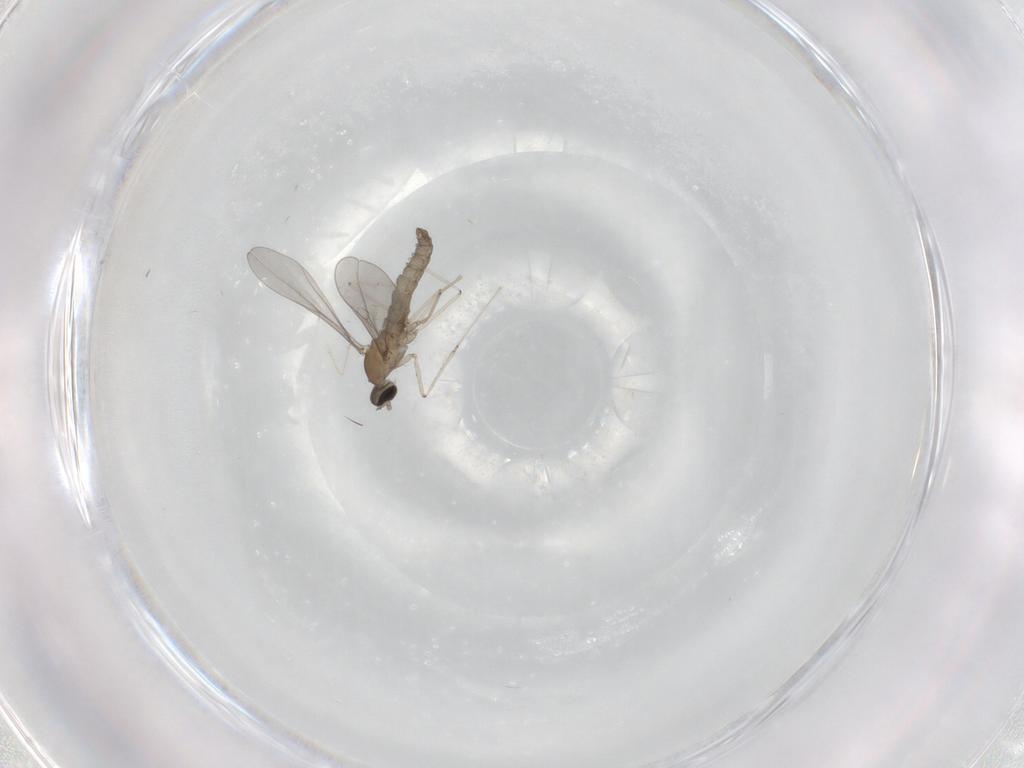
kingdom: Animalia
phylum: Arthropoda
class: Insecta
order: Diptera
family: Cecidomyiidae
